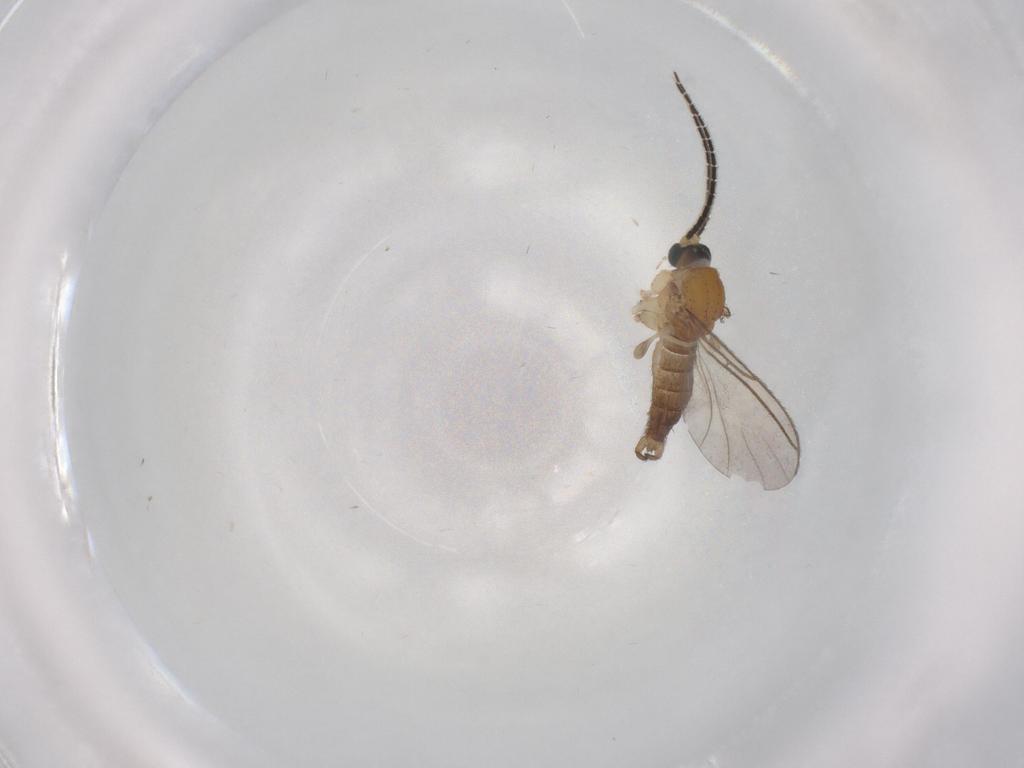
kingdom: Animalia
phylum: Arthropoda
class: Insecta
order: Diptera
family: Sciaridae
